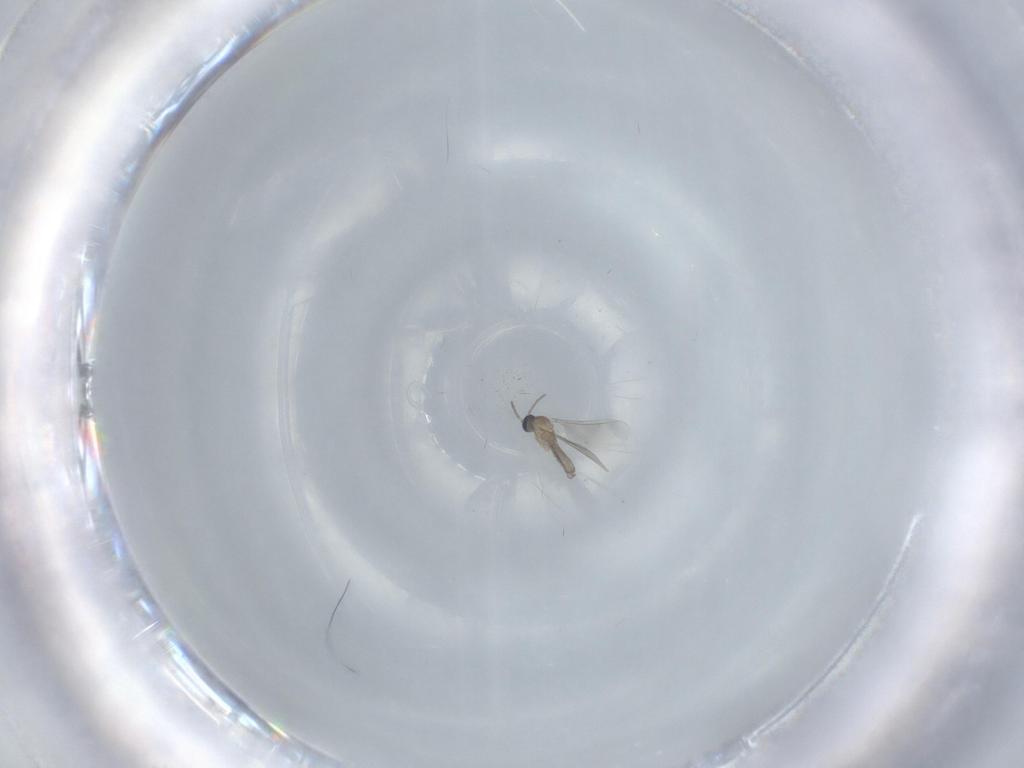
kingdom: Animalia
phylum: Arthropoda
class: Insecta
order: Diptera
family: Cecidomyiidae
